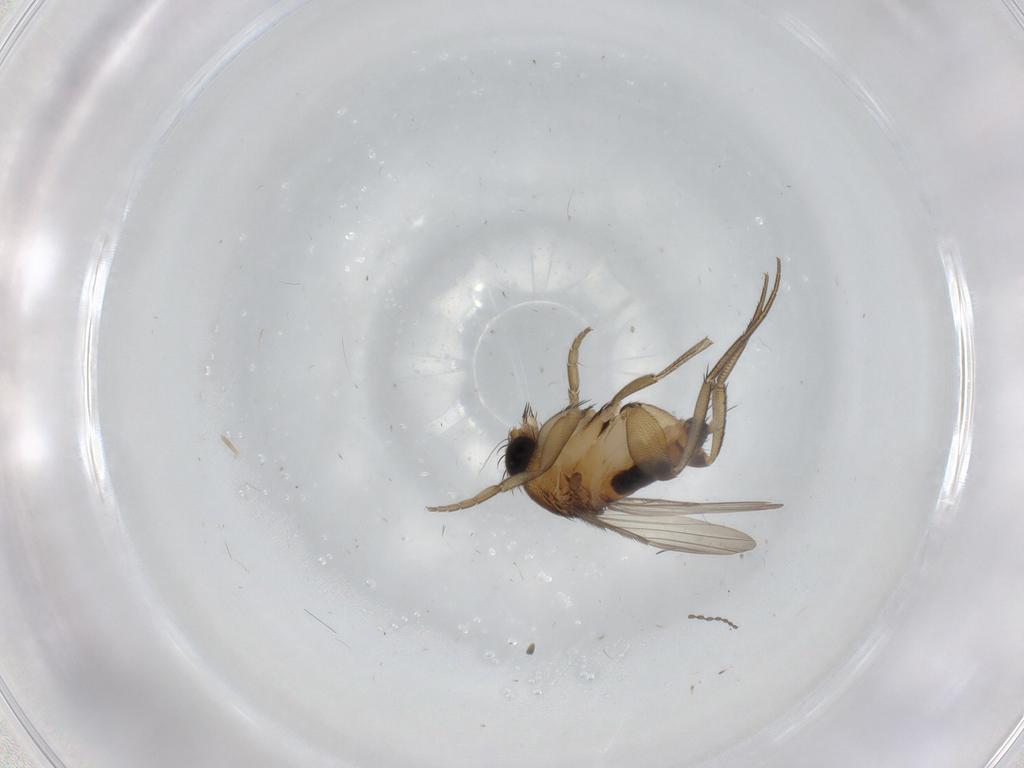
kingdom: Animalia
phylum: Arthropoda
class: Insecta
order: Diptera
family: Phoridae
